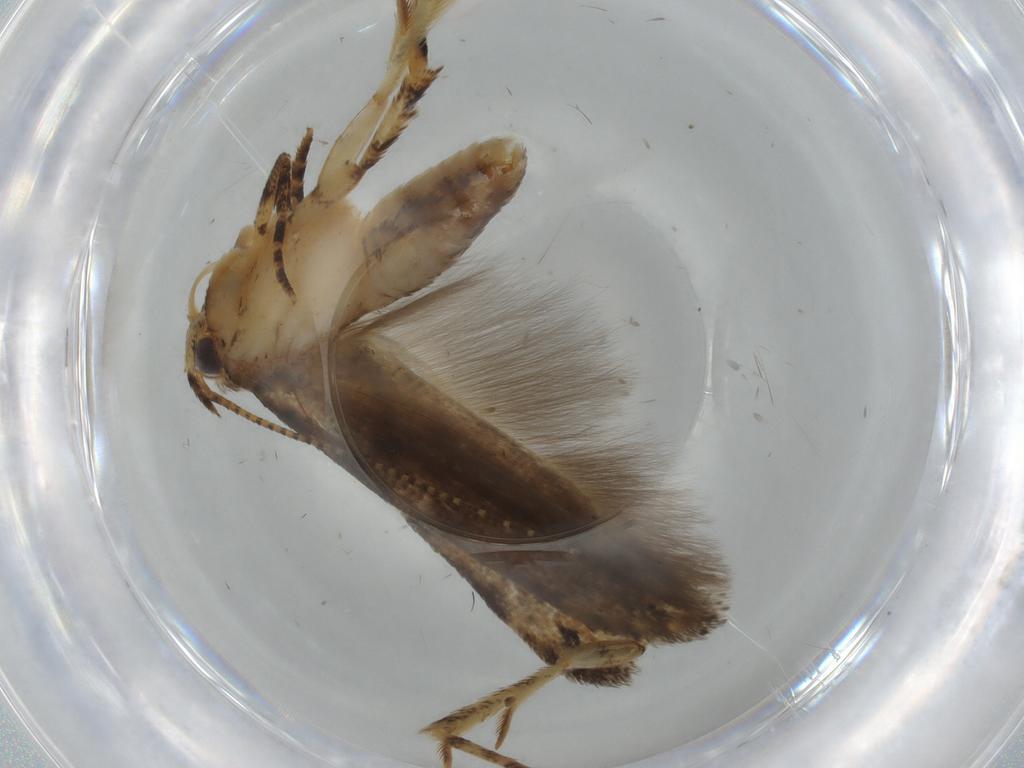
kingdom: Animalia
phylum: Arthropoda
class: Insecta
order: Lepidoptera
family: Gelechiidae
